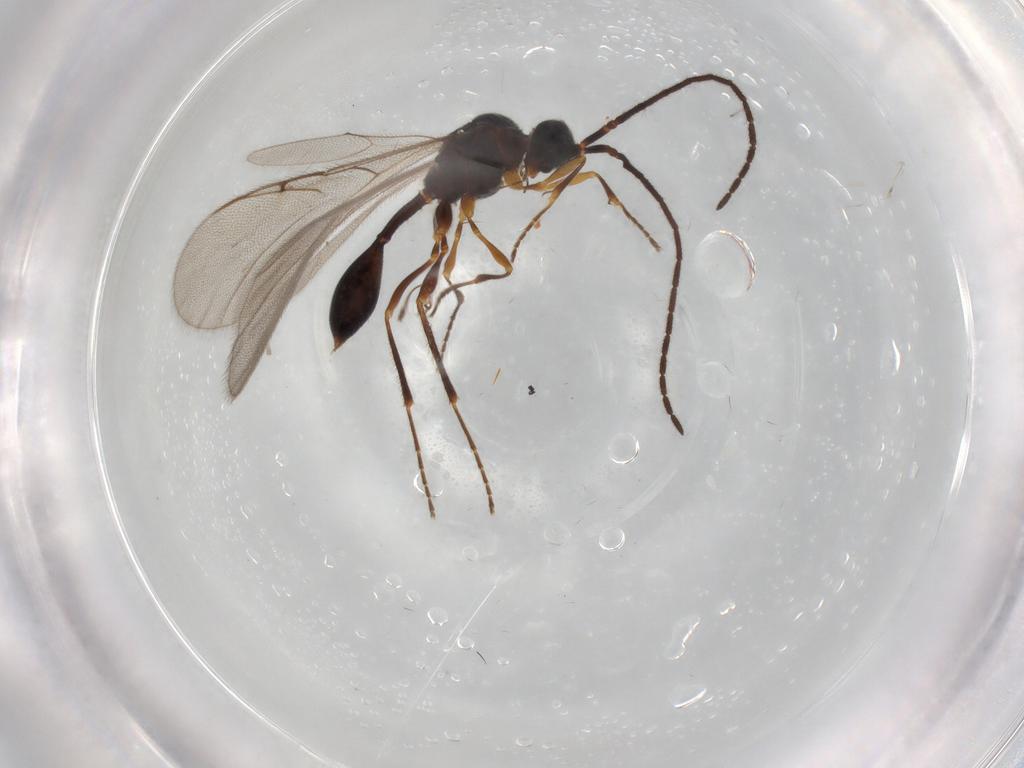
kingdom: Animalia
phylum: Arthropoda
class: Insecta
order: Hymenoptera
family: Diapriidae
